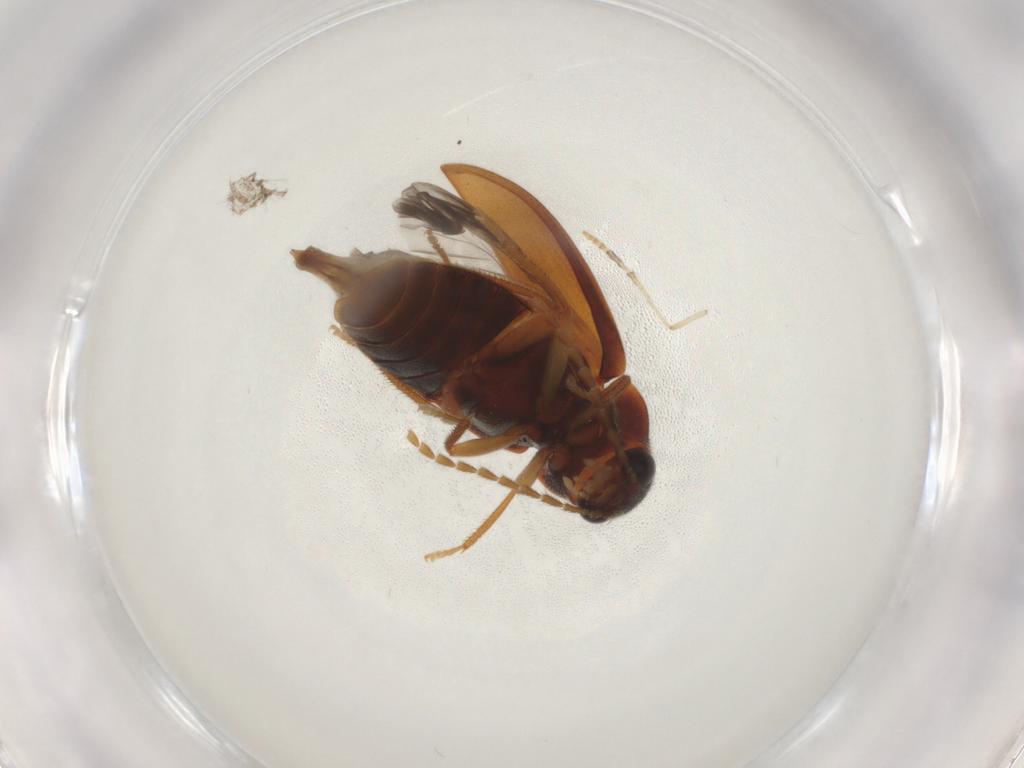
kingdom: Animalia
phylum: Arthropoda
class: Insecta
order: Coleoptera
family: Ptilodactylidae
